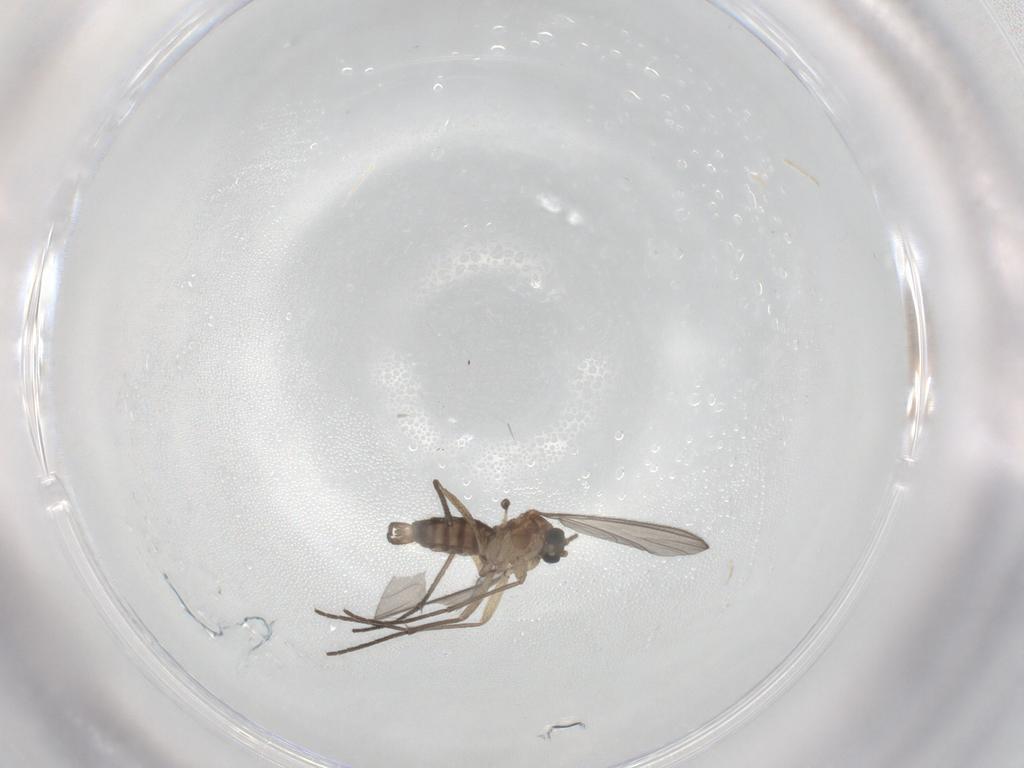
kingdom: Animalia
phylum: Arthropoda
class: Insecta
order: Diptera
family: Sciaridae
